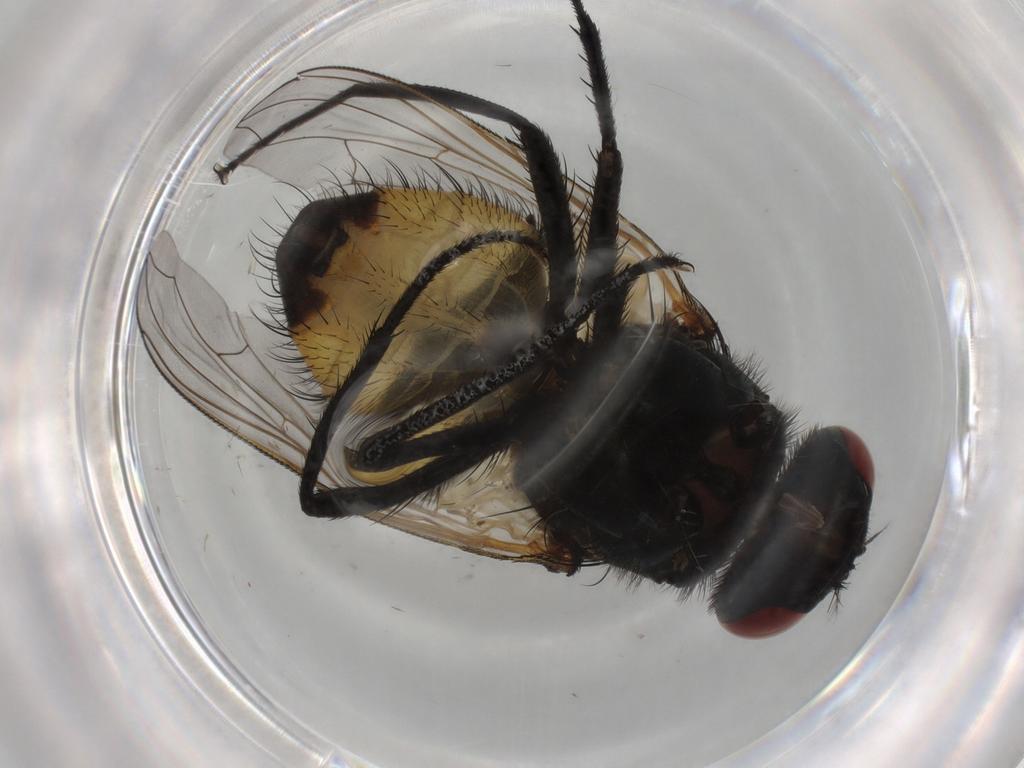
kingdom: Animalia
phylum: Arthropoda
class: Insecta
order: Diptera
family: Muscidae
